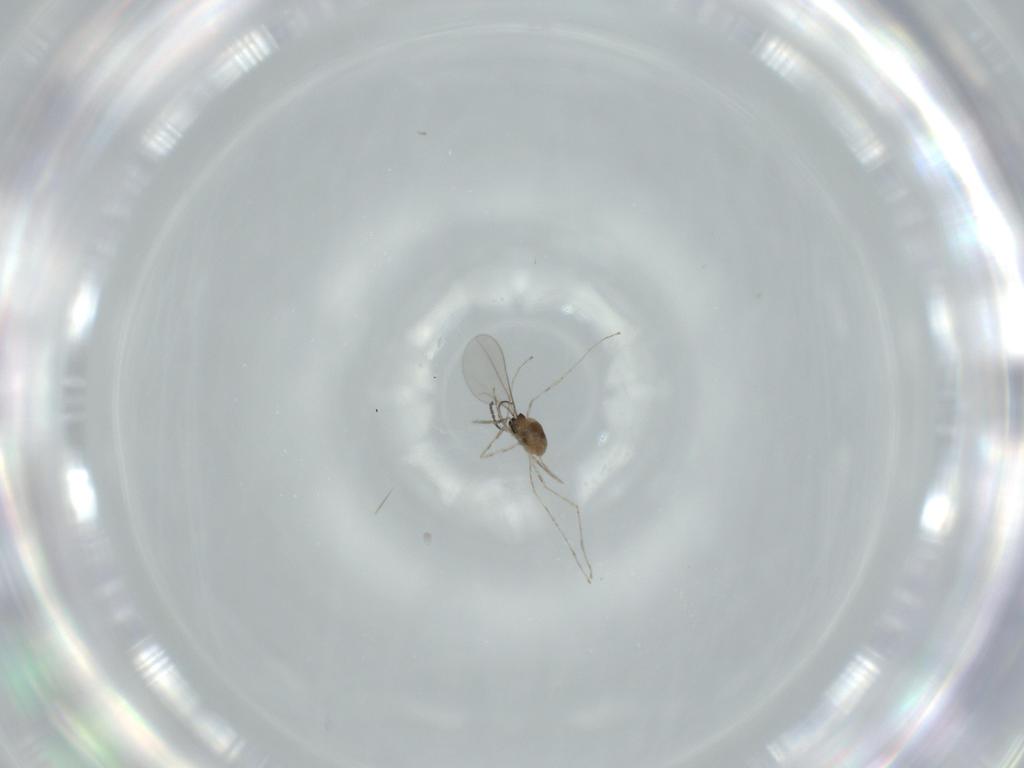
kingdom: Animalia
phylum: Arthropoda
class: Insecta
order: Diptera
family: Cecidomyiidae
